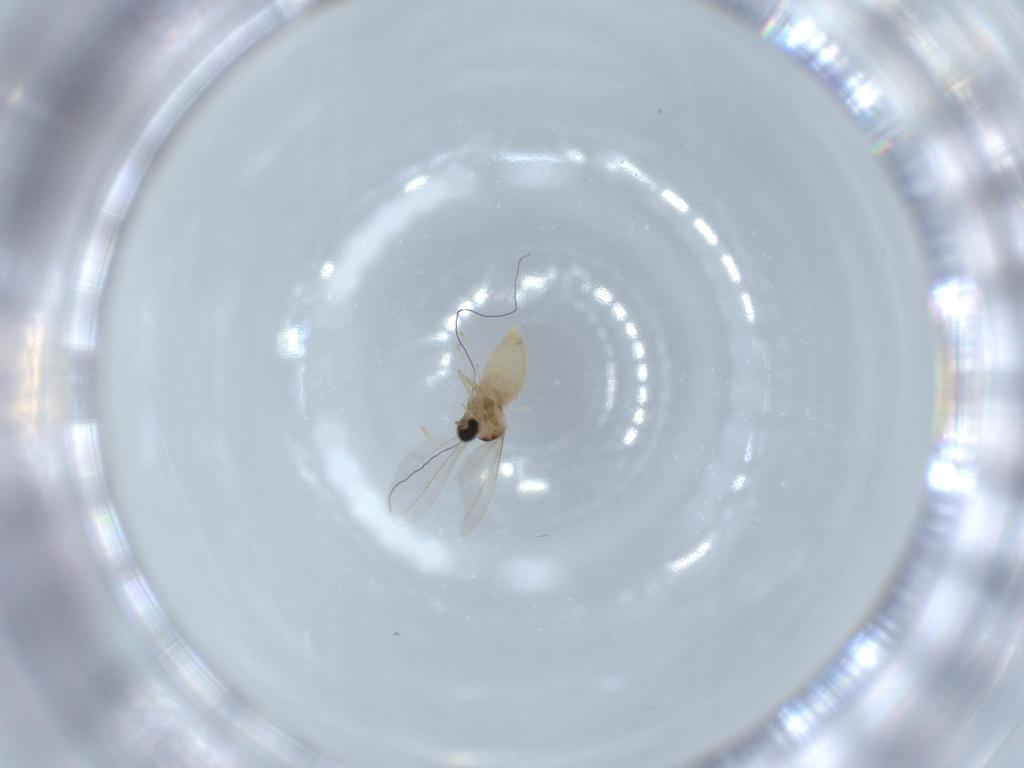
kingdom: Animalia
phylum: Arthropoda
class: Insecta
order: Diptera
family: Cecidomyiidae
